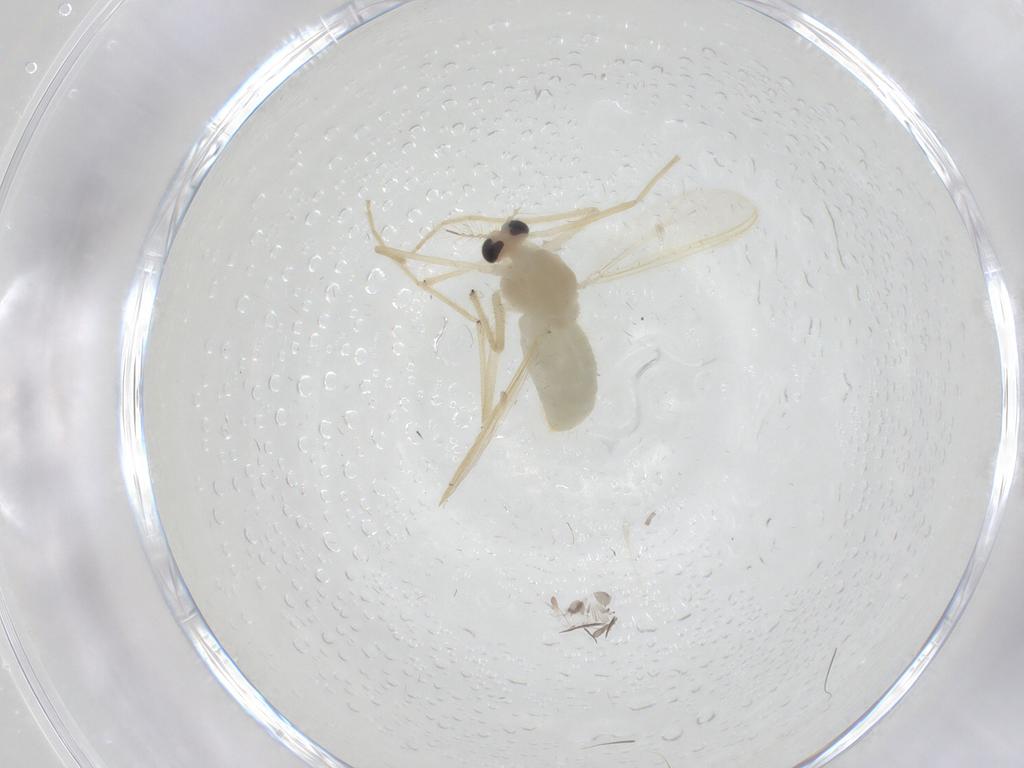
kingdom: Animalia
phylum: Arthropoda
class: Insecta
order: Diptera
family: Chironomidae
